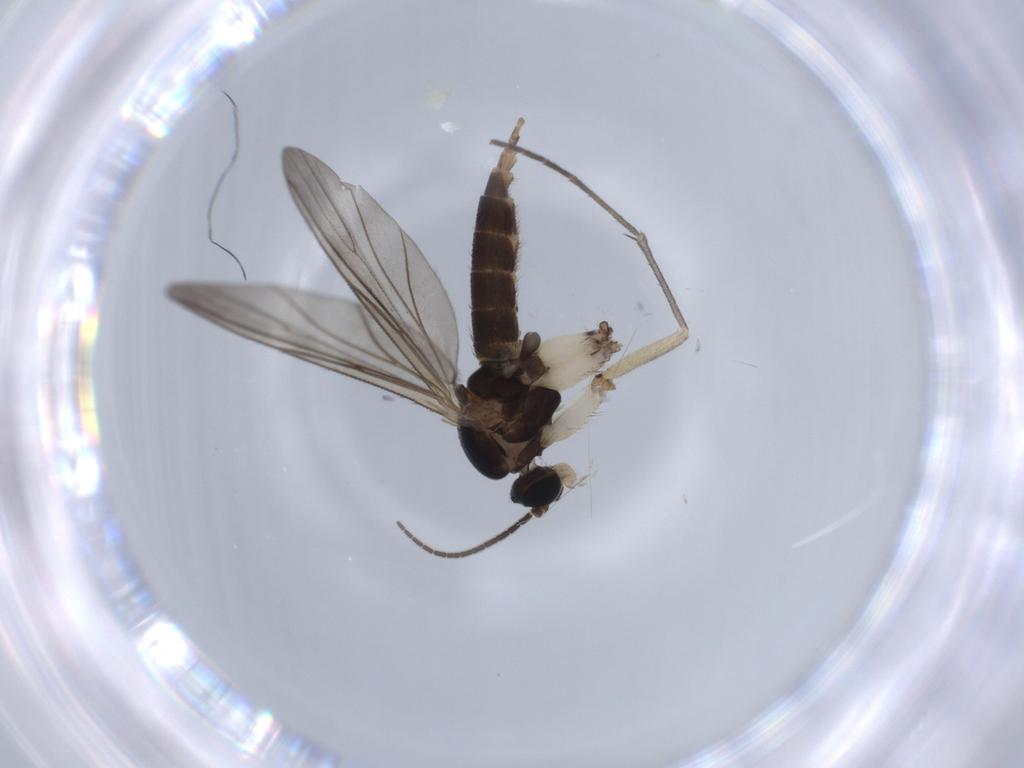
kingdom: Animalia
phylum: Arthropoda
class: Insecta
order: Diptera
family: Sciaridae
